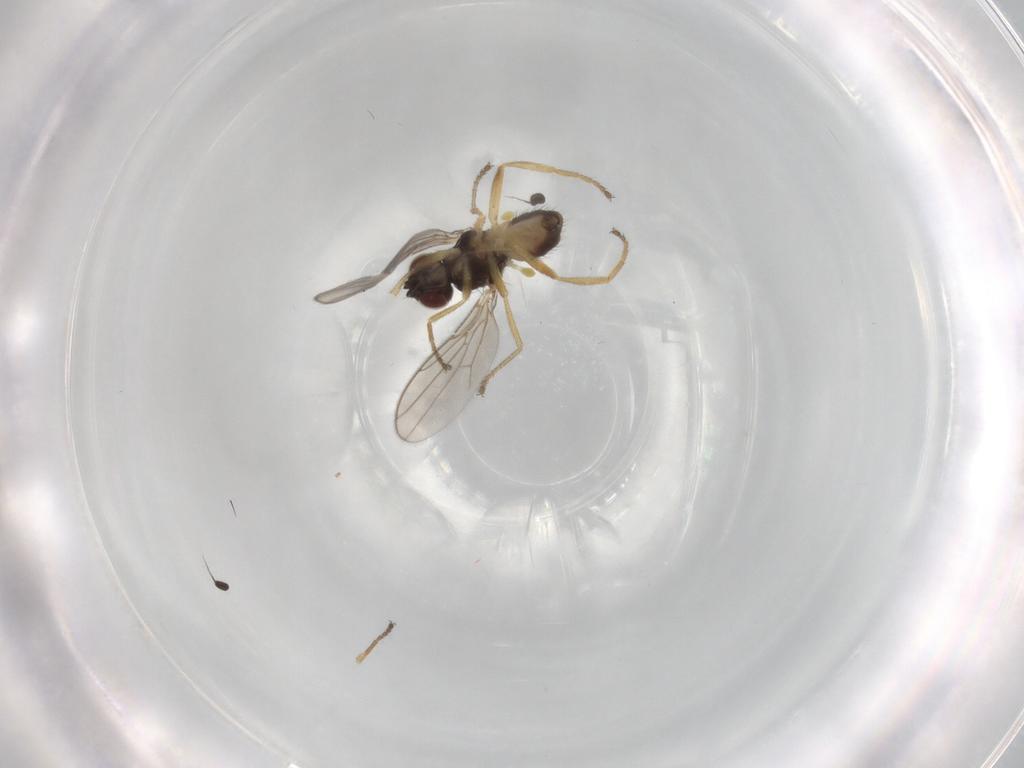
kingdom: Animalia
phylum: Arthropoda
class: Insecta
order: Diptera
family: Chloropidae
